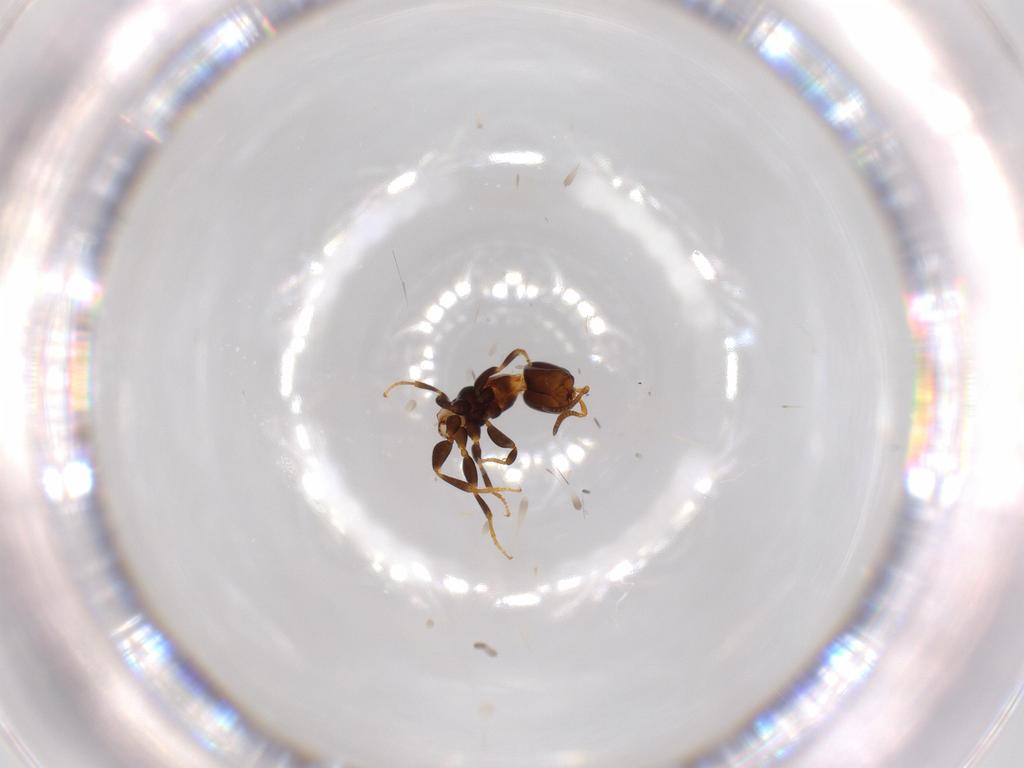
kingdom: Animalia
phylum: Arthropoda
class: Insecta
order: Hymenoptera
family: Bethylidae
